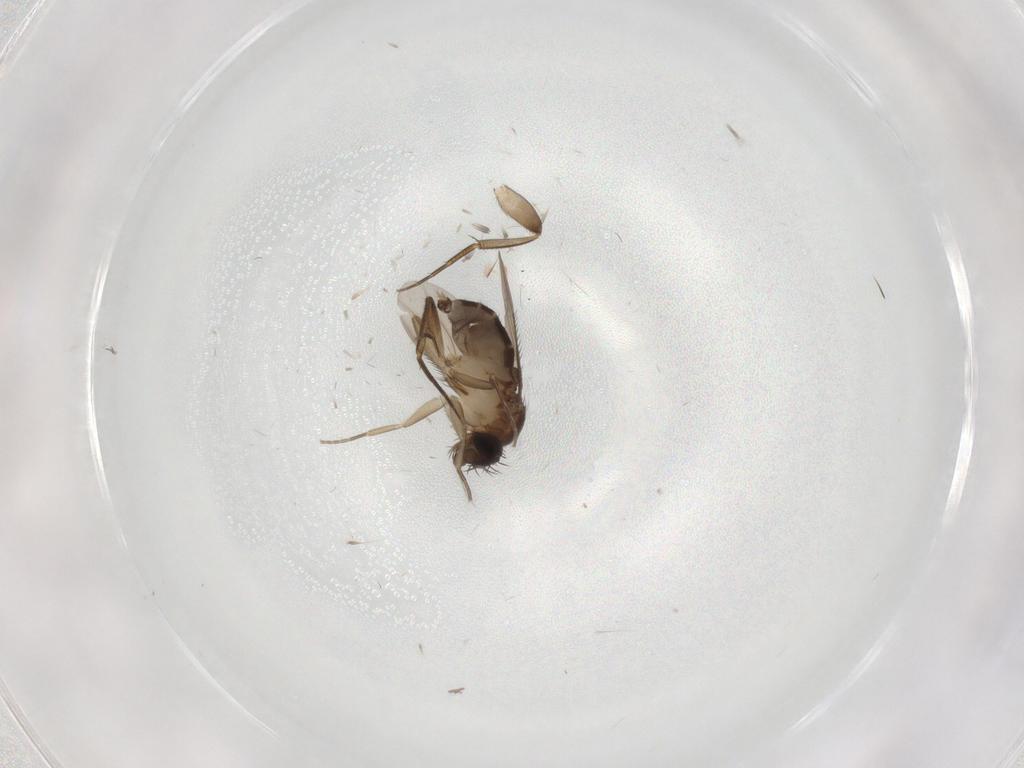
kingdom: Animalia
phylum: Arthropoda
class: Insecta
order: Diptera
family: Phoridae
